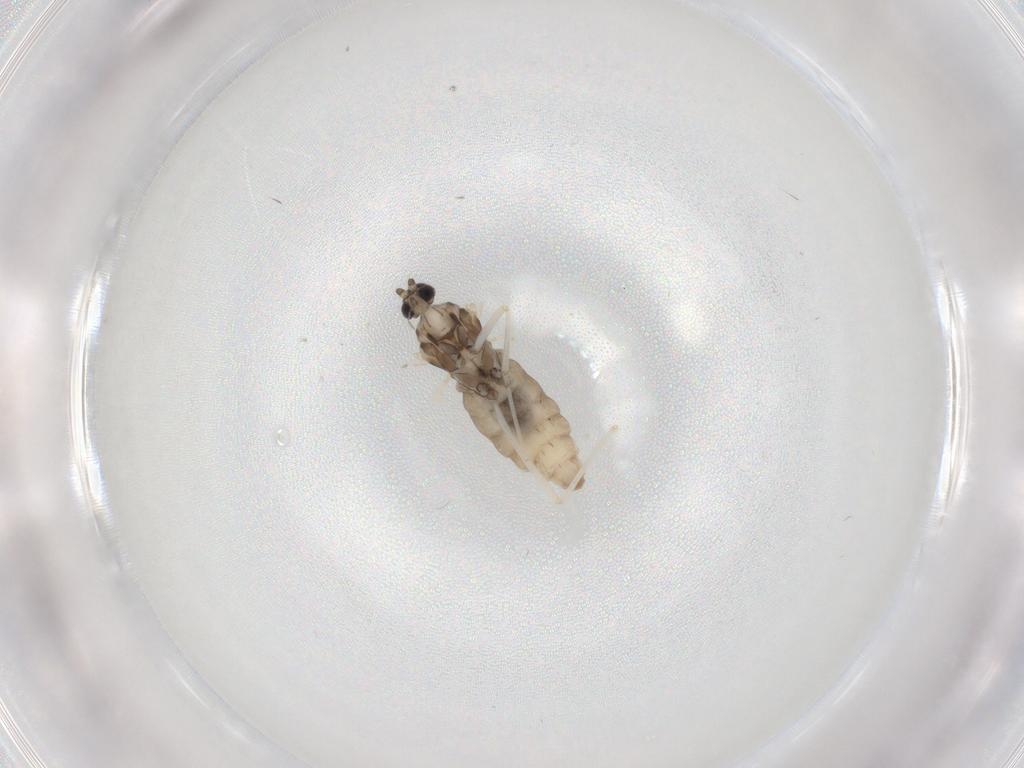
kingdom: Animalia
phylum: Arthropoda
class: Insecta
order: Diptera
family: Cecidomyiidae
